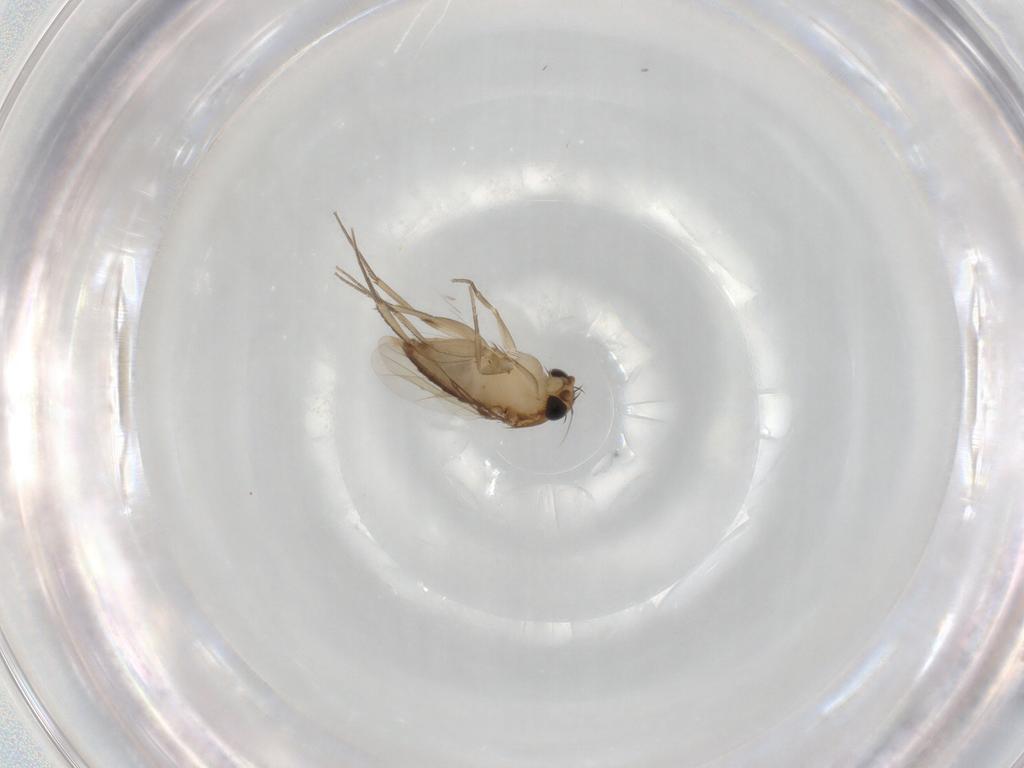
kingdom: Animalia
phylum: Arthropoda
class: Insecta
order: Diptera
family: Phoridae
